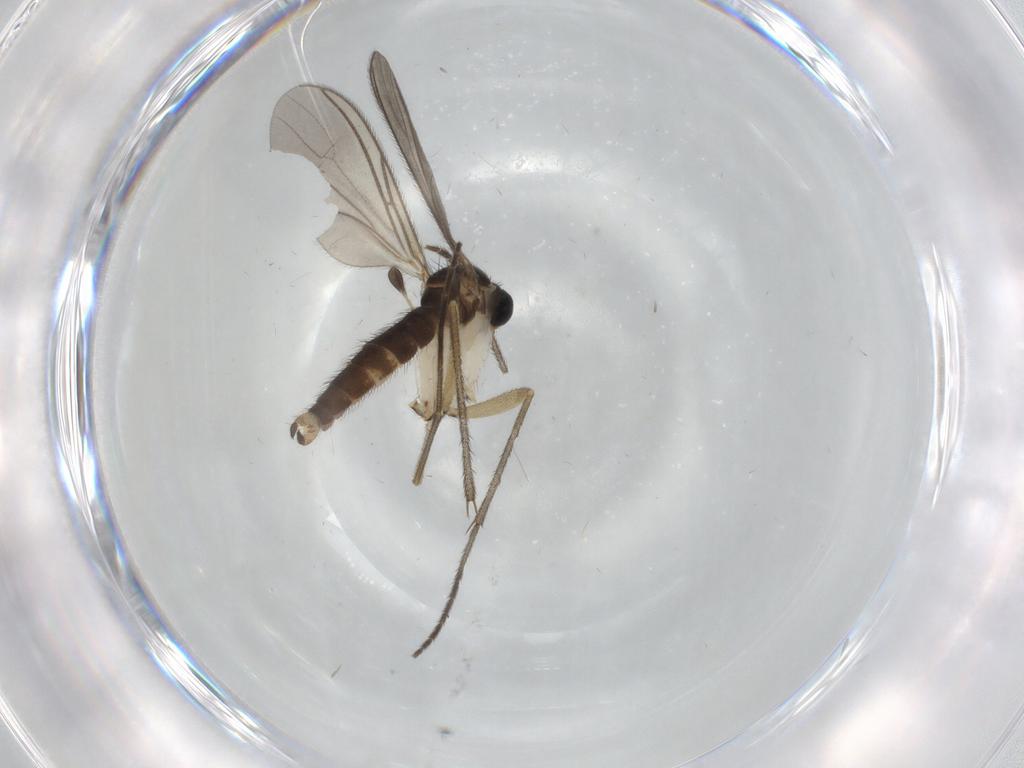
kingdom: Animalia
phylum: Arthropoda
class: Insecta
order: Diptera
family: Sciaridae
